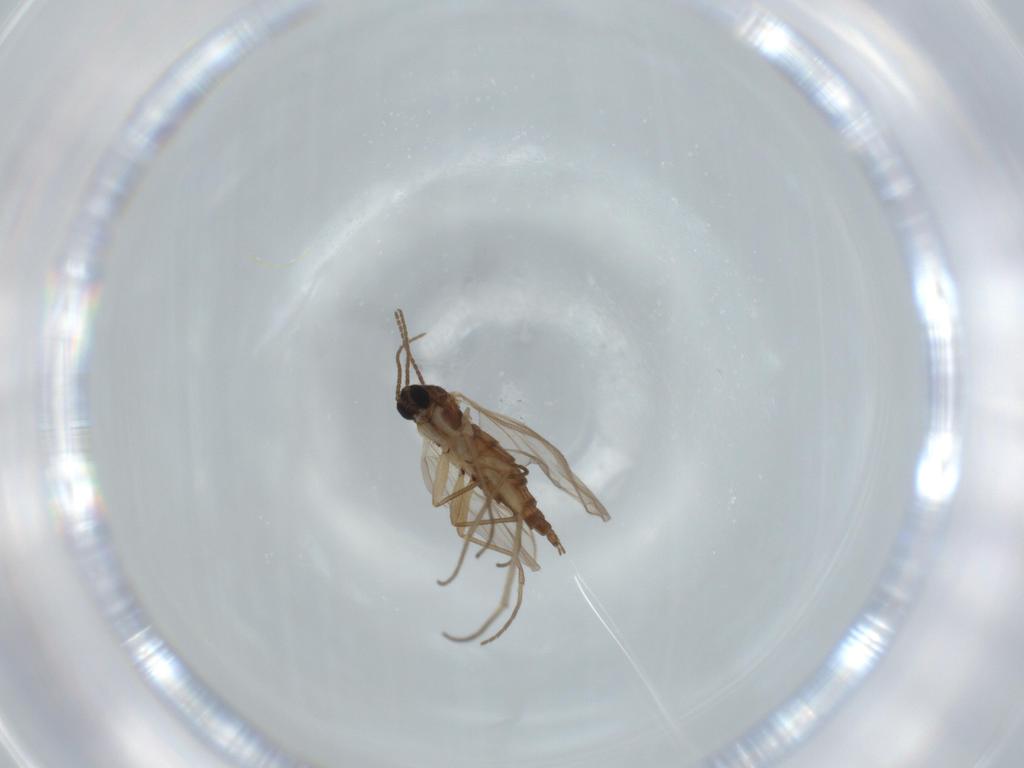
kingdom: Animalia
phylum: Arthropoda
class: Insecta
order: Diptera
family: Sciaridae
